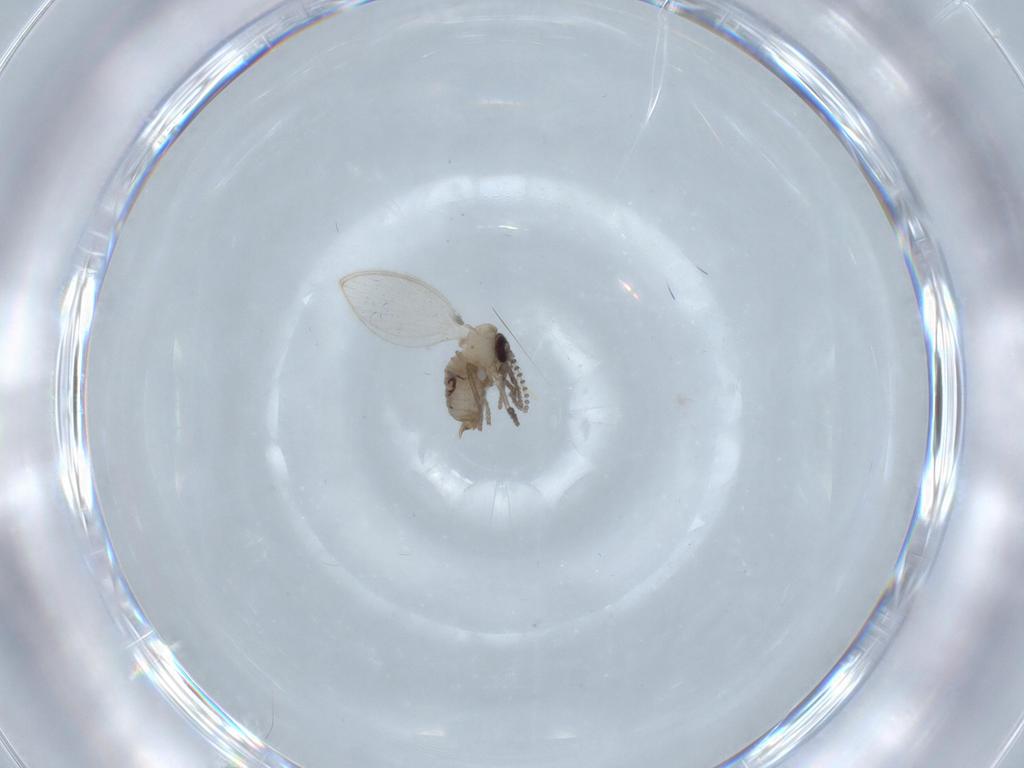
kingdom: Animalia
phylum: Arthropoda
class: Insecta
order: Diptera
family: Psychodidae
